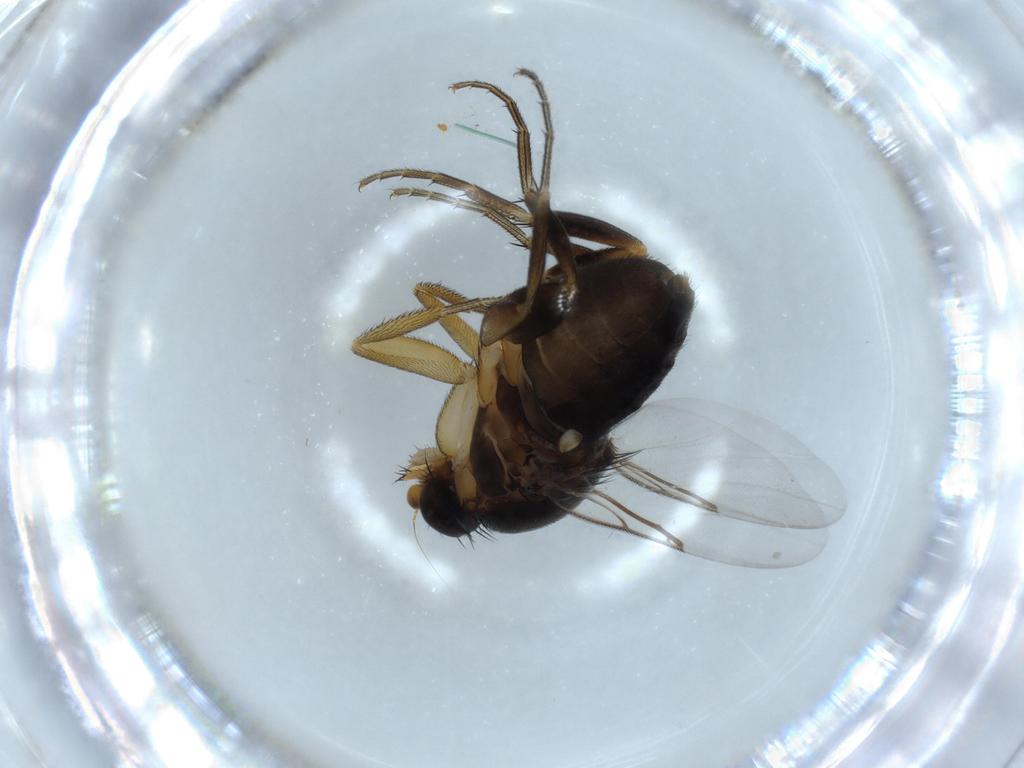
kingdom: Animalia
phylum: Arthropoda
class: Insecta
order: Diptera
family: Phoridae
